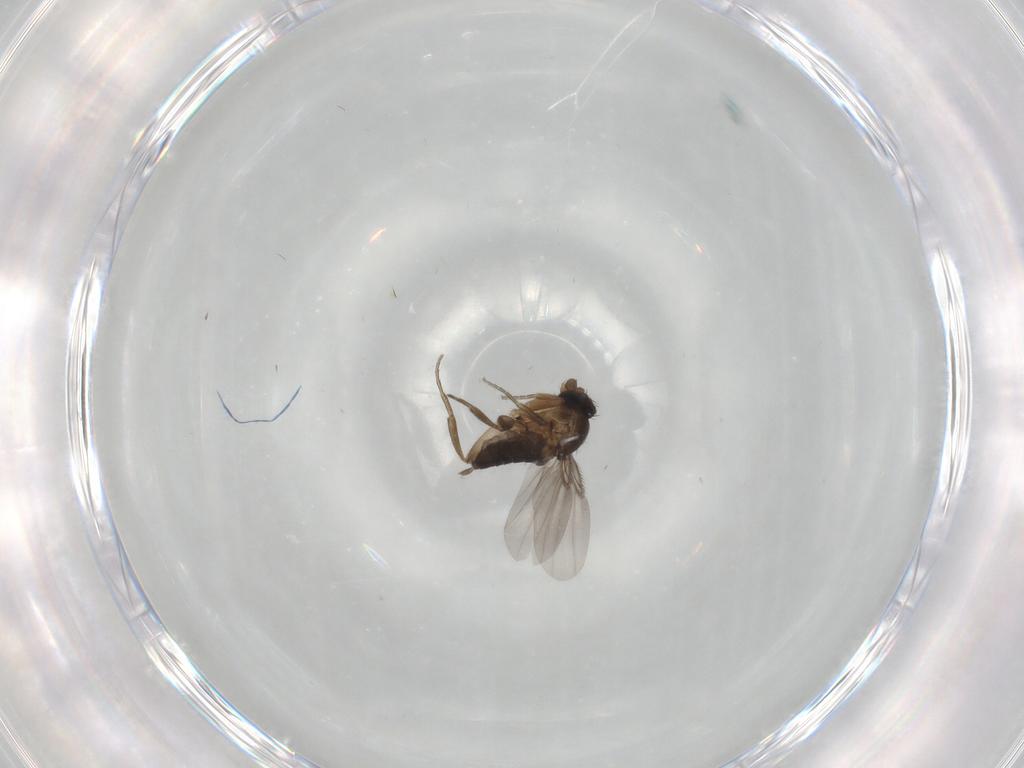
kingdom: Animalia
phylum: Arthropoda
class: Insecta
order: Diptera
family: Phoridae
